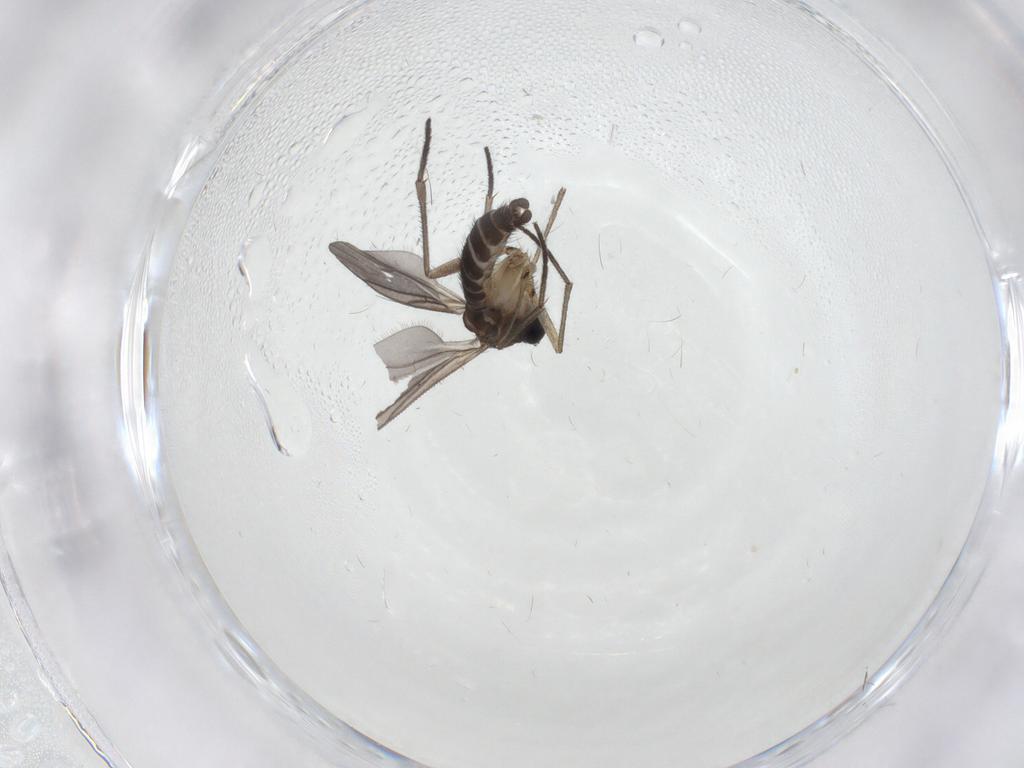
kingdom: Animalia
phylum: Arthropoda
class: Insecta
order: Diptera
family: Sciaridae
